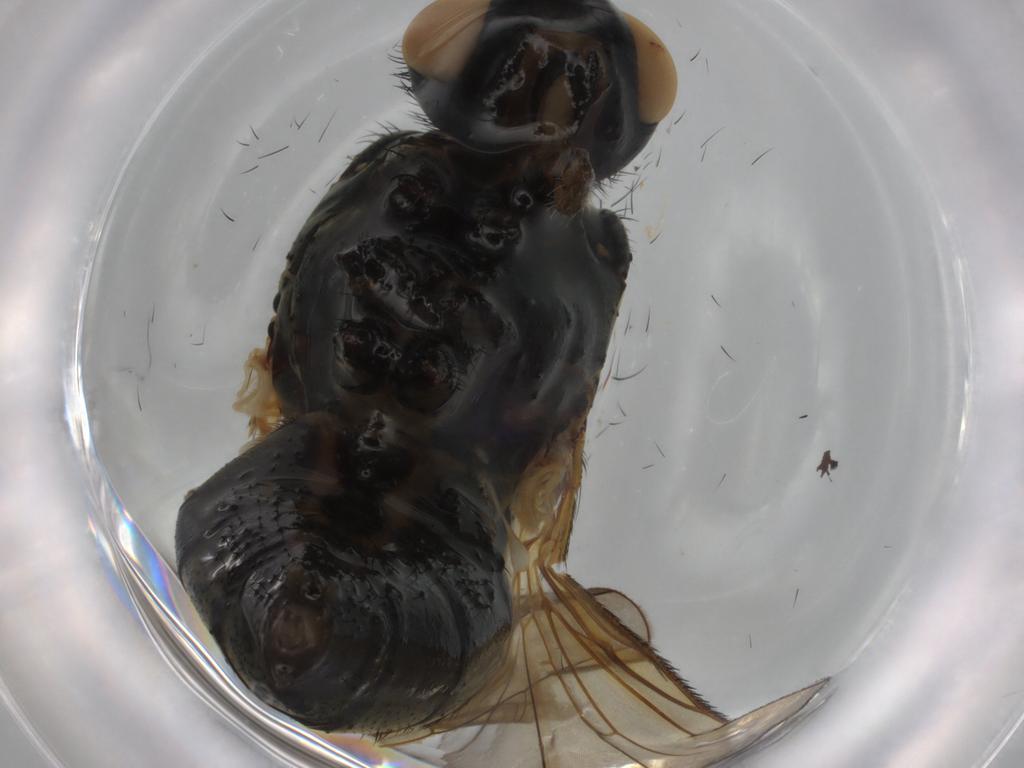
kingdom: Animalia
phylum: Arthropoda
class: Insecta
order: Diptera
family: Tachinidae
